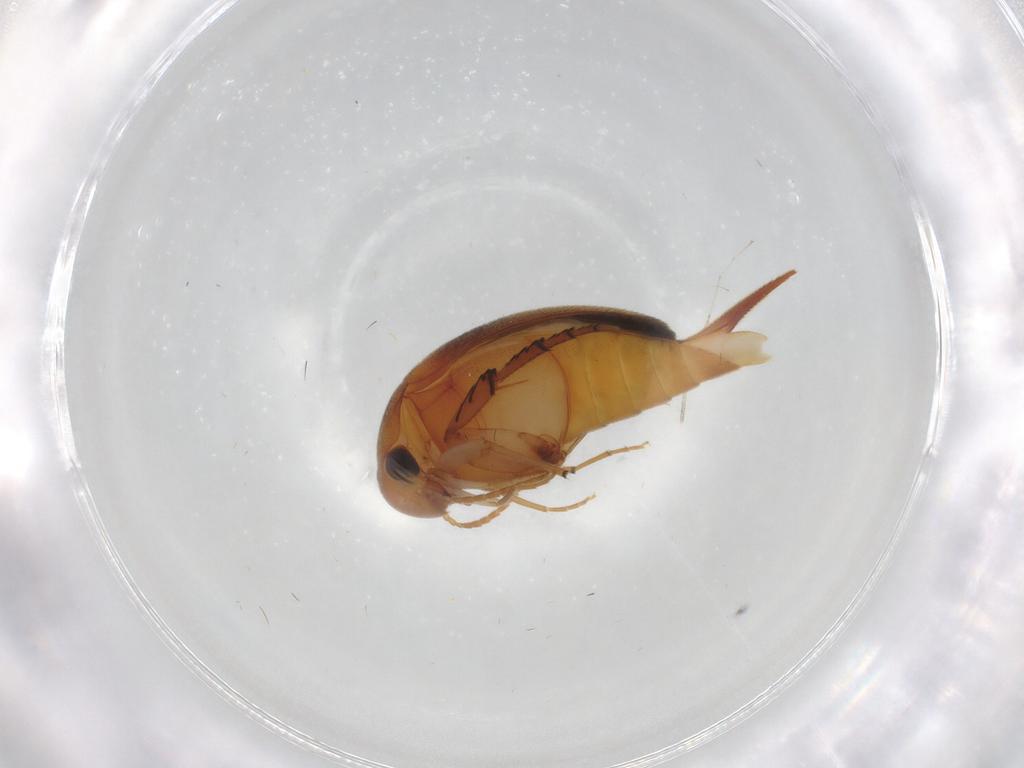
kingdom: Animalia
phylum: Arthropoda
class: Insecta
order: Coleoptera
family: Mordellidae
